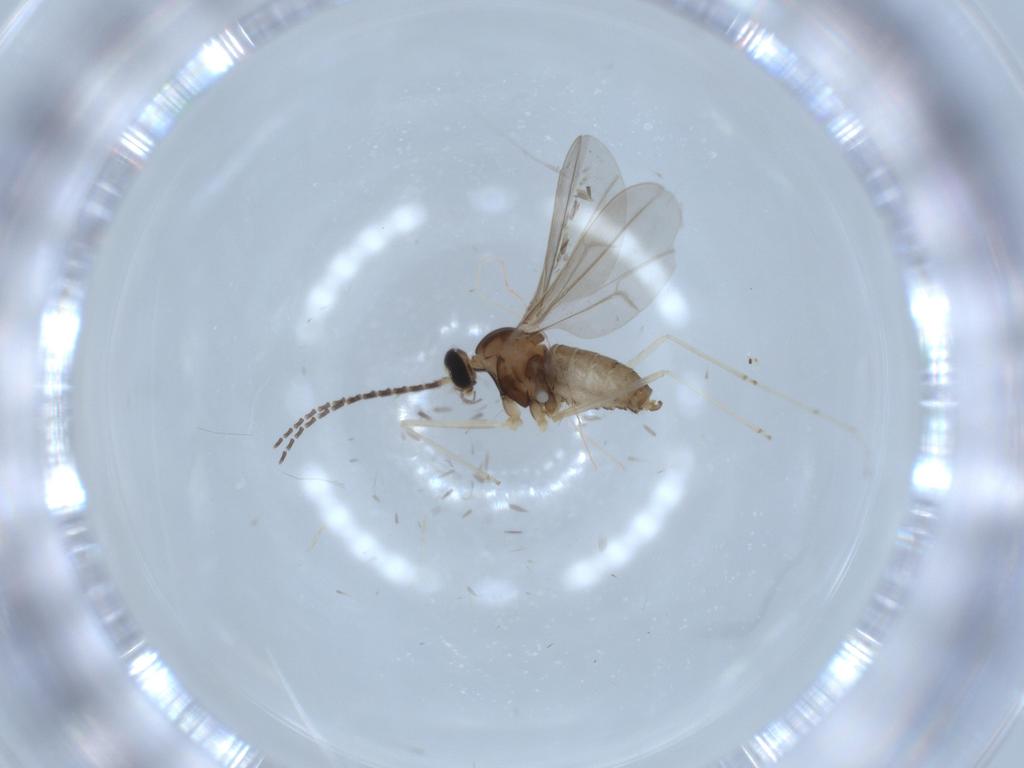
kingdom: Animalia
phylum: Arthropoda
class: Insecta
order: Diptera
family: Cecidomyiidae
